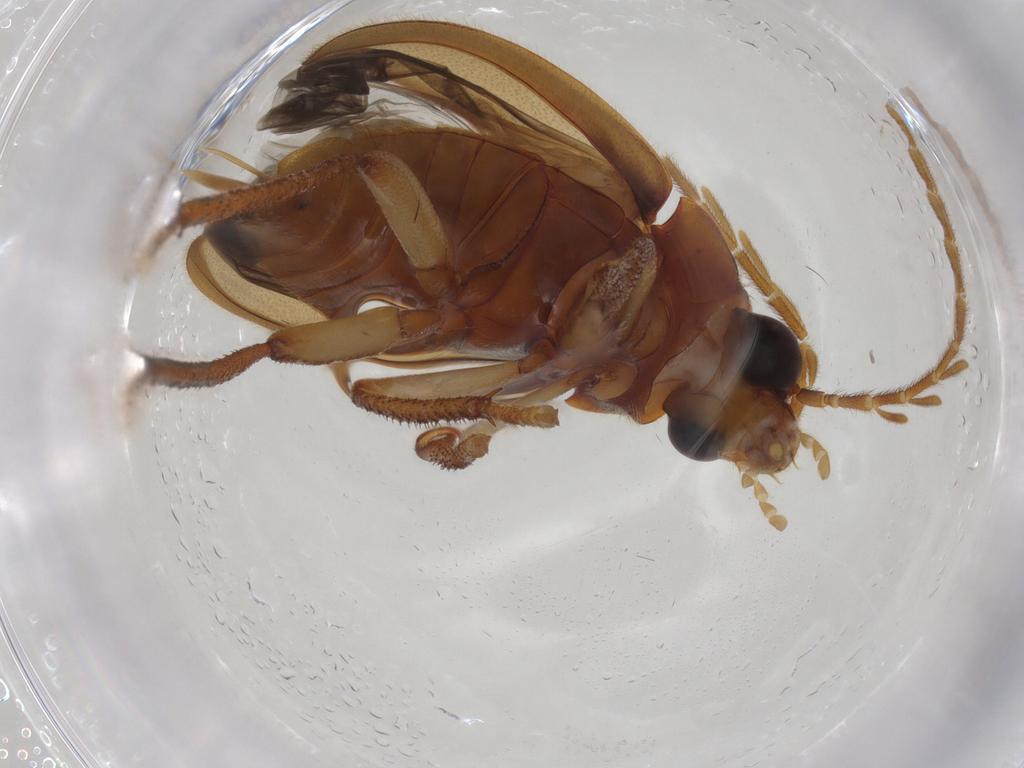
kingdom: Animalia
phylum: Arthropoda
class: Insecta
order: Coleoptera
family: Ptilodactylidae
